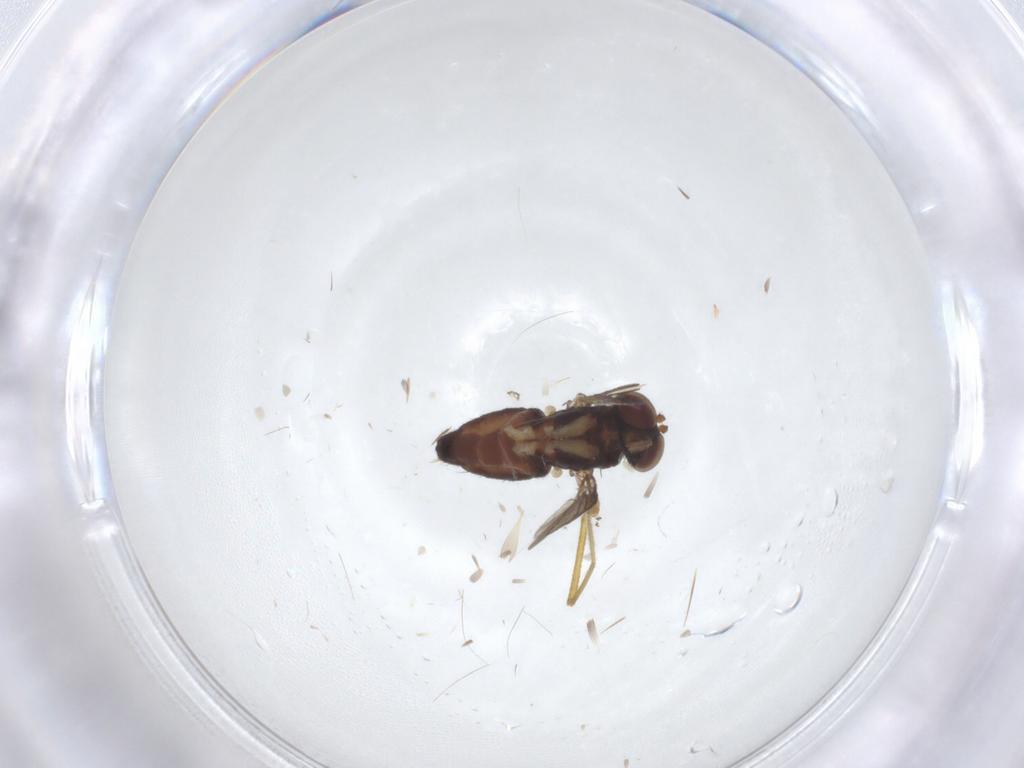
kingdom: Animalia
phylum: Arthropoda
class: Insecta
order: Diptera
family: Dolichopodidae
